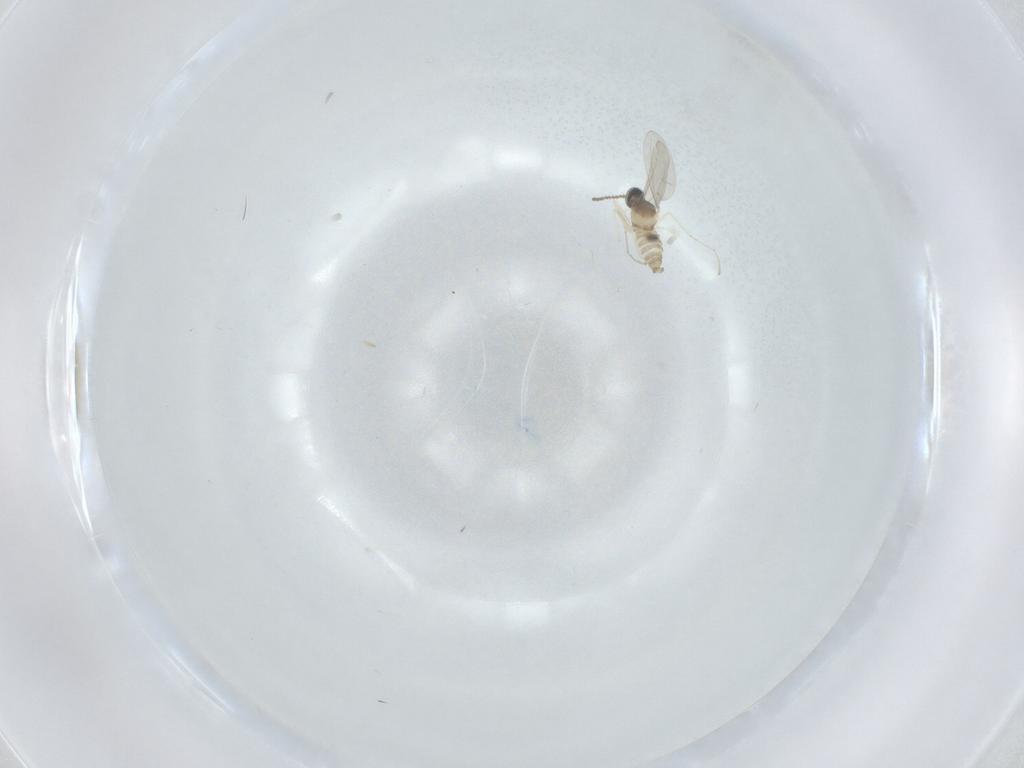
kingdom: Animalia
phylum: Arthropoda
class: Insecta
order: Diptera
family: Cecidomyiidae
